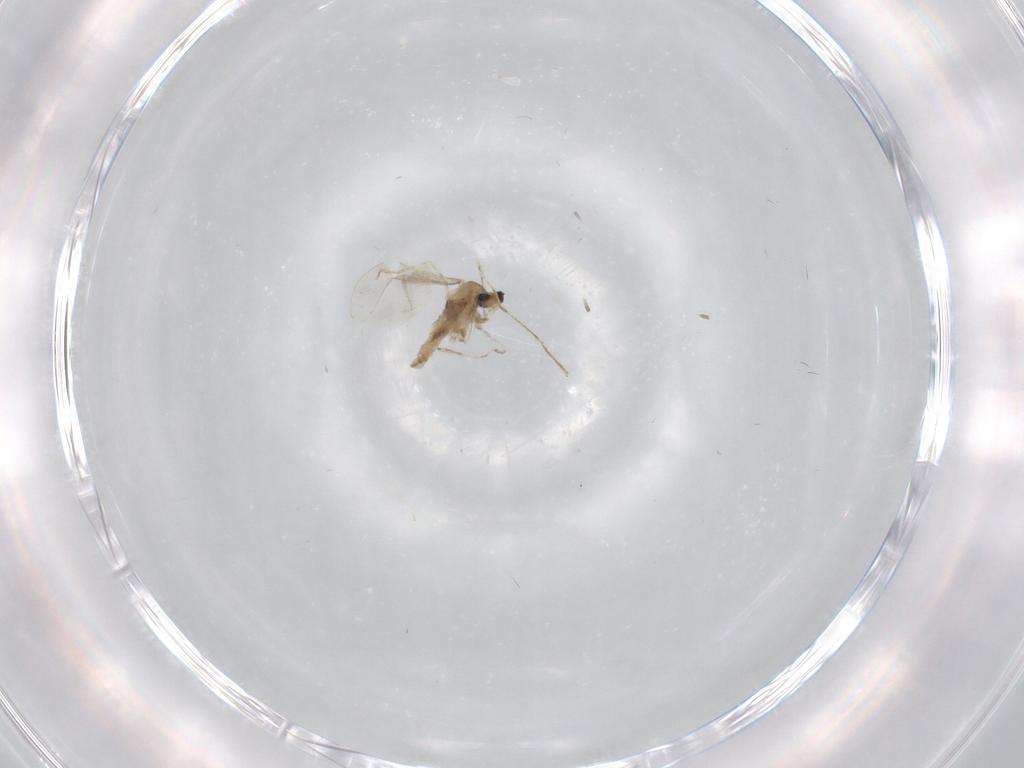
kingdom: Animalia
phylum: Arthropoda
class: Insecta
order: Diptera
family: Cecidomyiidae
